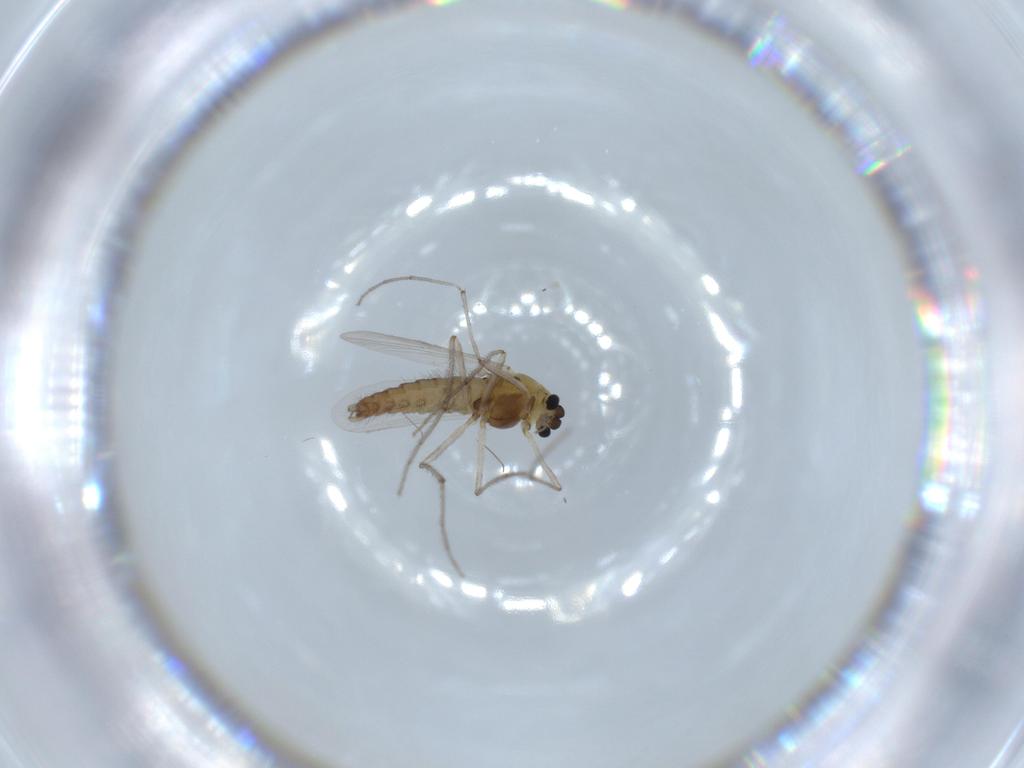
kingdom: Animalia
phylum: Arthropoda
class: Insecta
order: Diptera
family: Chironomidae
